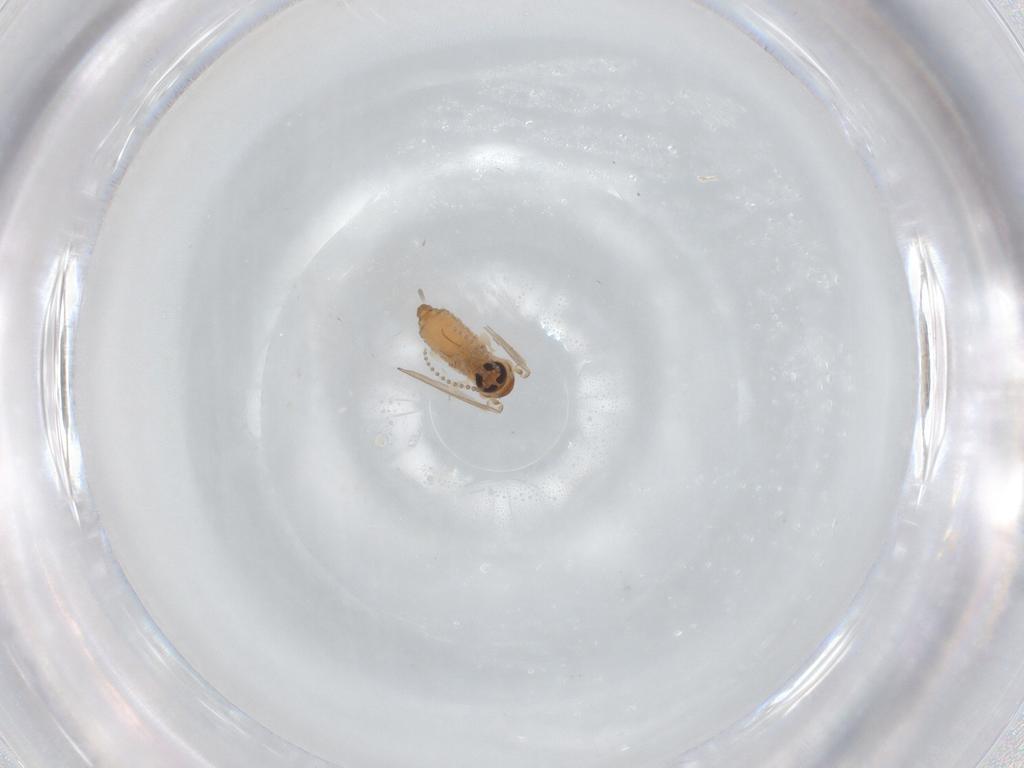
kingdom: Animalia
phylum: Arthropoda
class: Insecta
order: Diptera
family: Psychodidae
